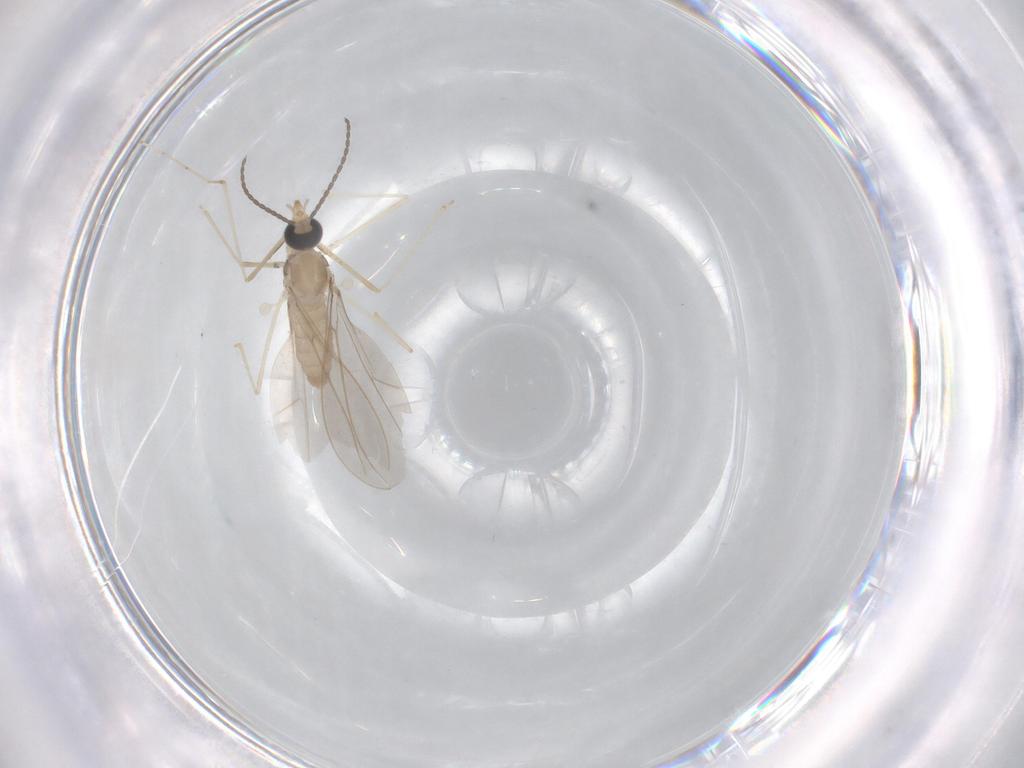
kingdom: Animalia
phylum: Arthropoda
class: Insecta
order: Diptera
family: Cecidomyiidae
